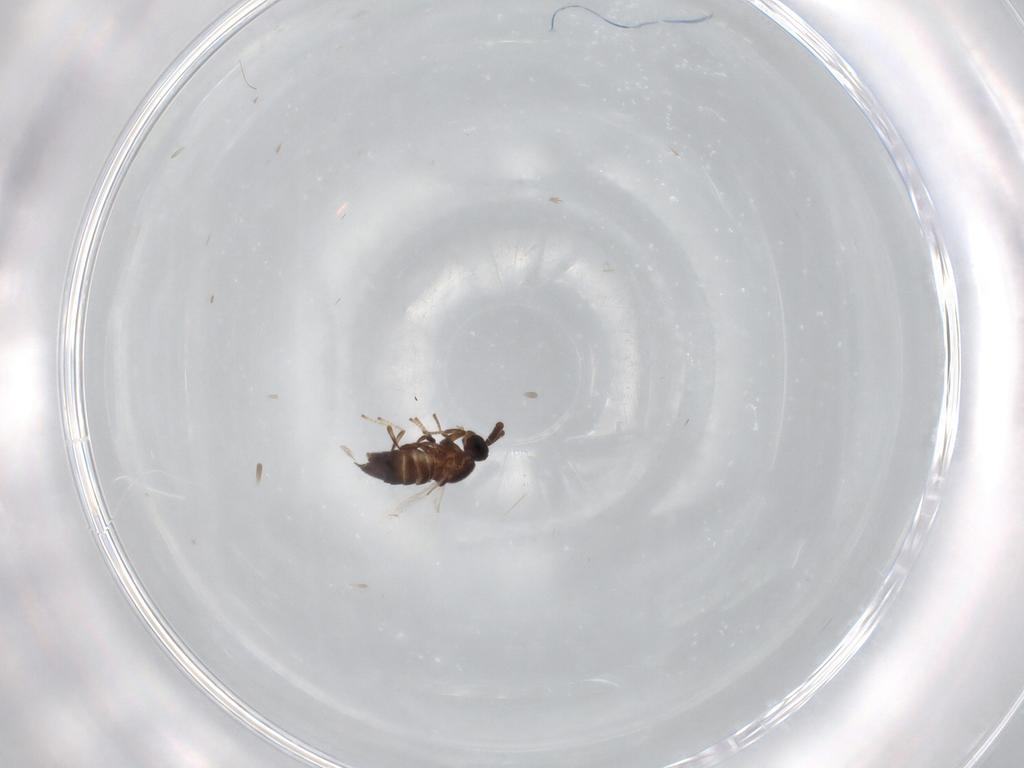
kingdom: Animalia
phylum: Arthropoda
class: Insecta
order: Diptera
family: Scatopsidae
